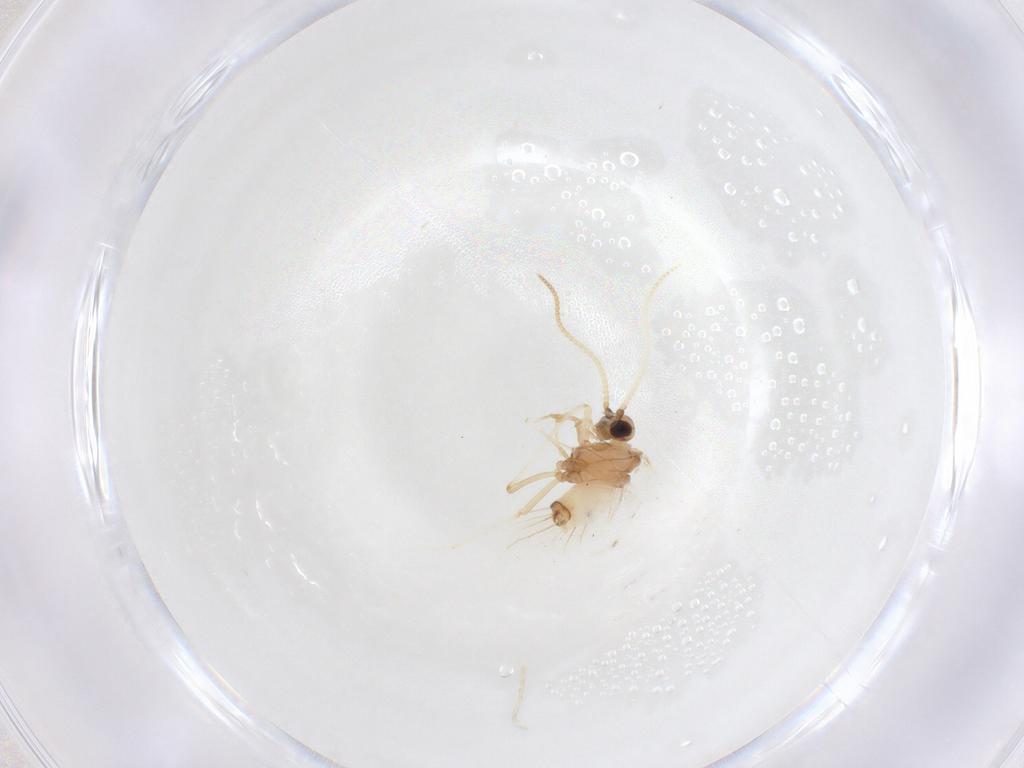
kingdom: Animalia
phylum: Arthropoda
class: Insecta
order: Neuroptera
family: Coniopterygidae
